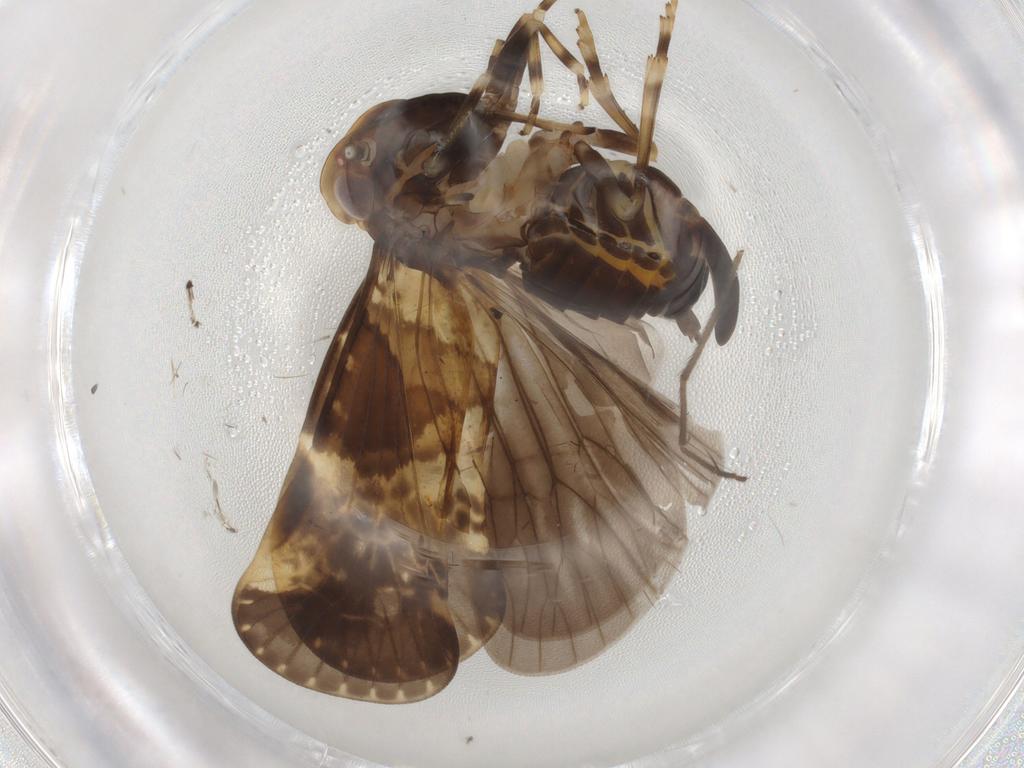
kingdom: Animalia
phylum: Arthropoda
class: Insecta
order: Hemiptera
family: Cixiidae
